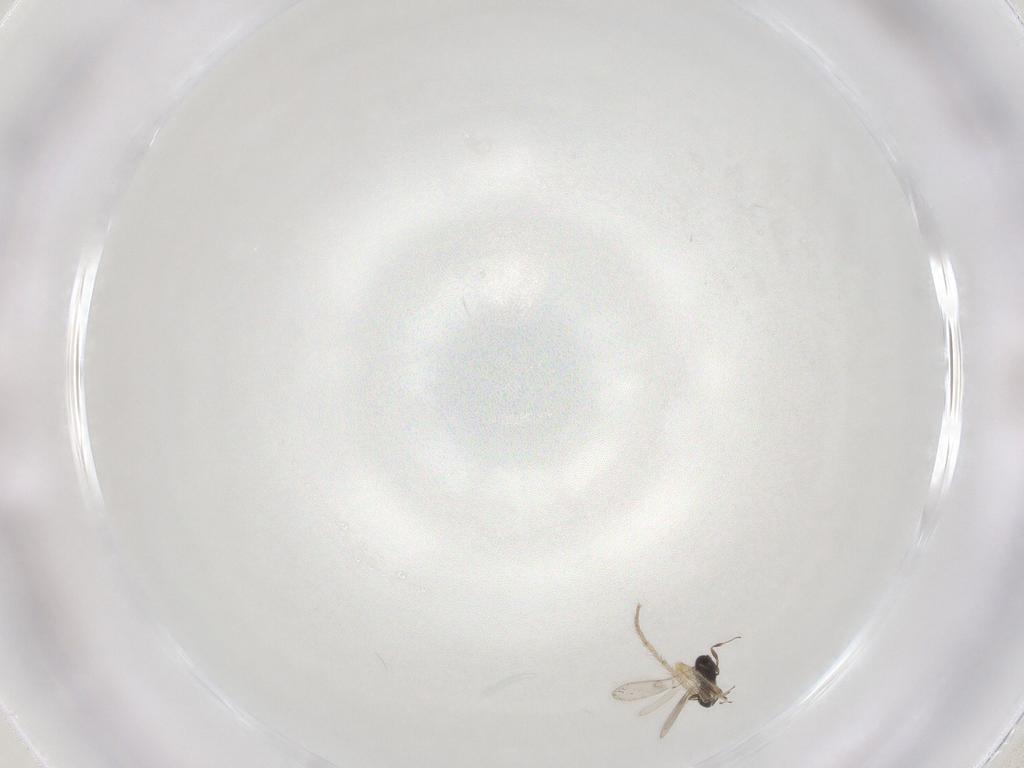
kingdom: Animalia
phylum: Arthropoda
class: Insecta
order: Hymenoptera
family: Scelionidae
